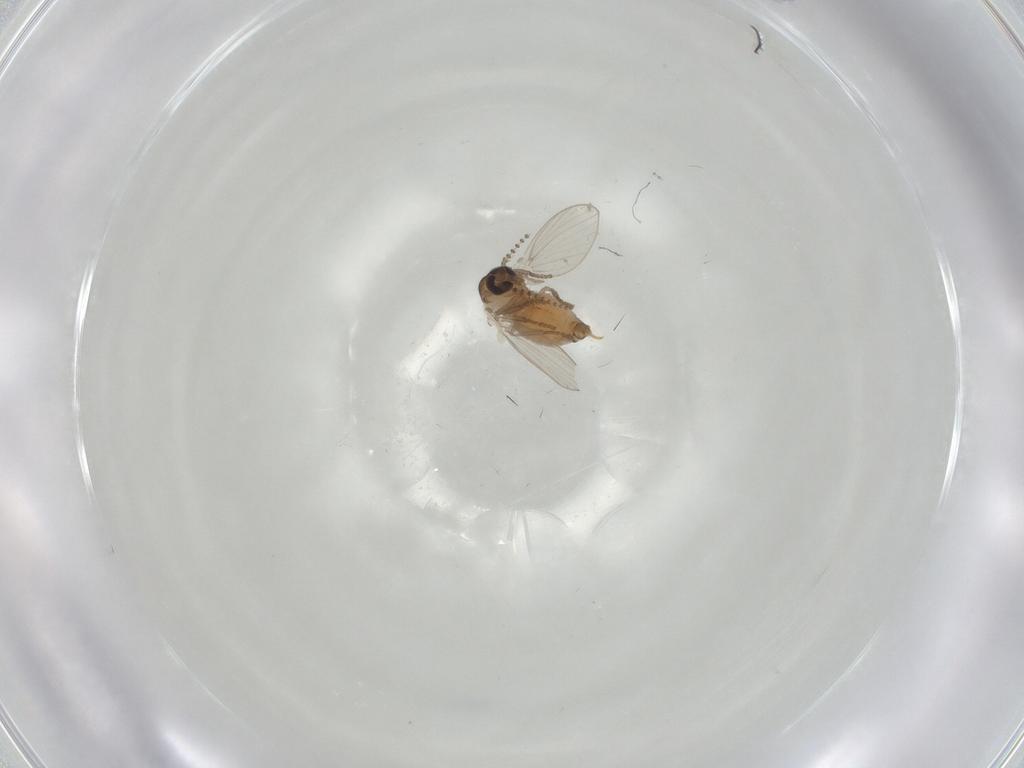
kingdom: Animalia
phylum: Arthropoda
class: Insecta
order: Diptera
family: Psychodidae
